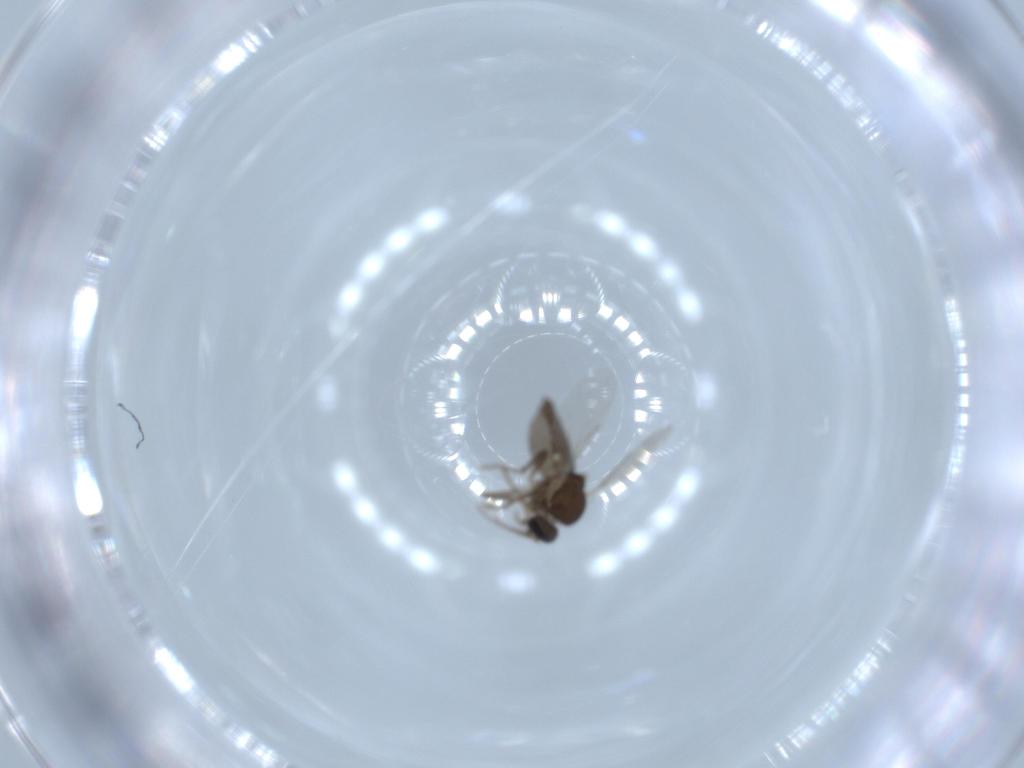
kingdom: Animalia
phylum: Arthropoda
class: Insecta
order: Diptera
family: Ceratopogonidae
